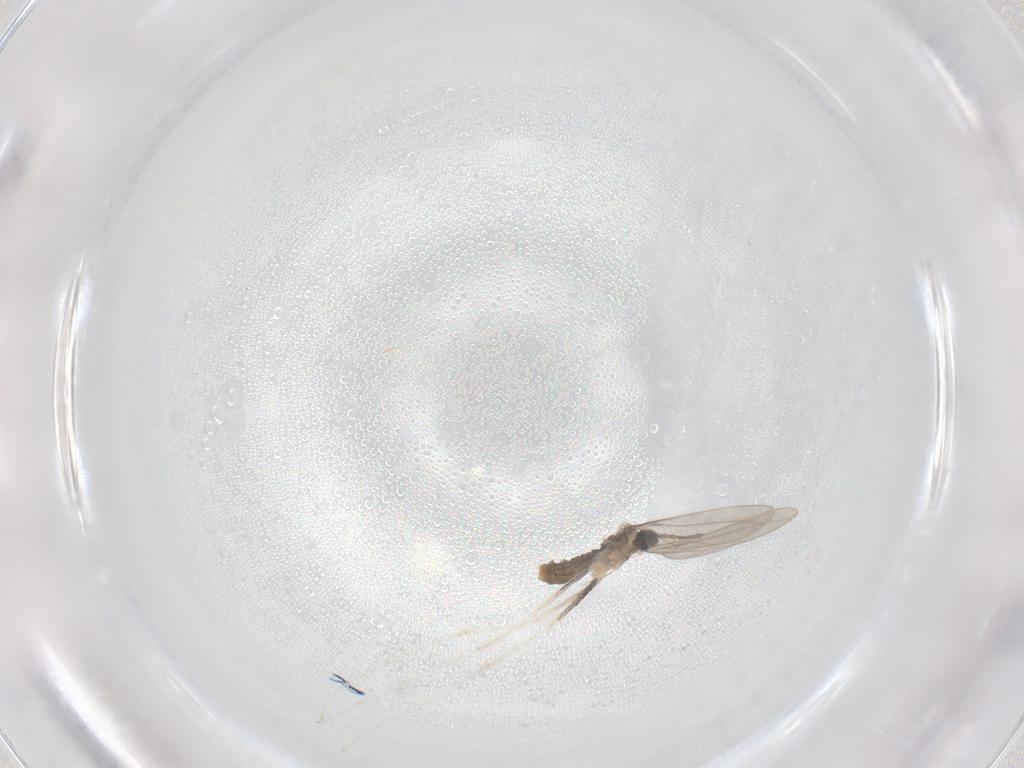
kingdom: Animalia
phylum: Arthropoda
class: Insecta
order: Diptera
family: Cecidomyiidae
